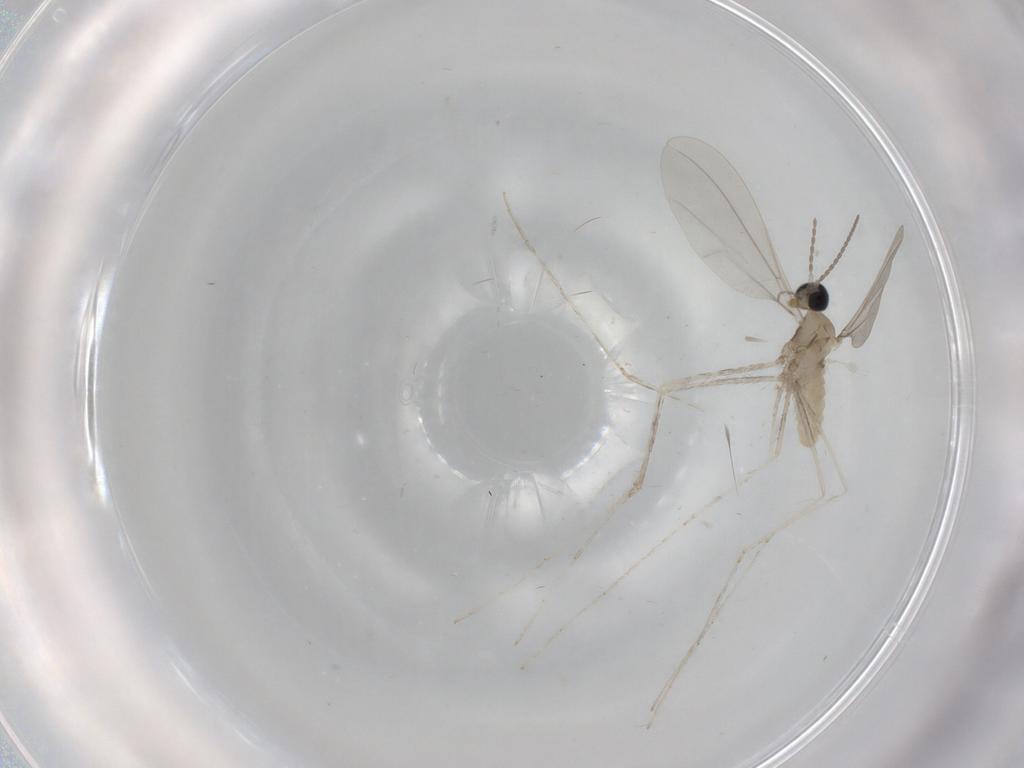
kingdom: Animalia
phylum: Arthropoda
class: Insecta
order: Diptera
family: Cecidomyiidae
